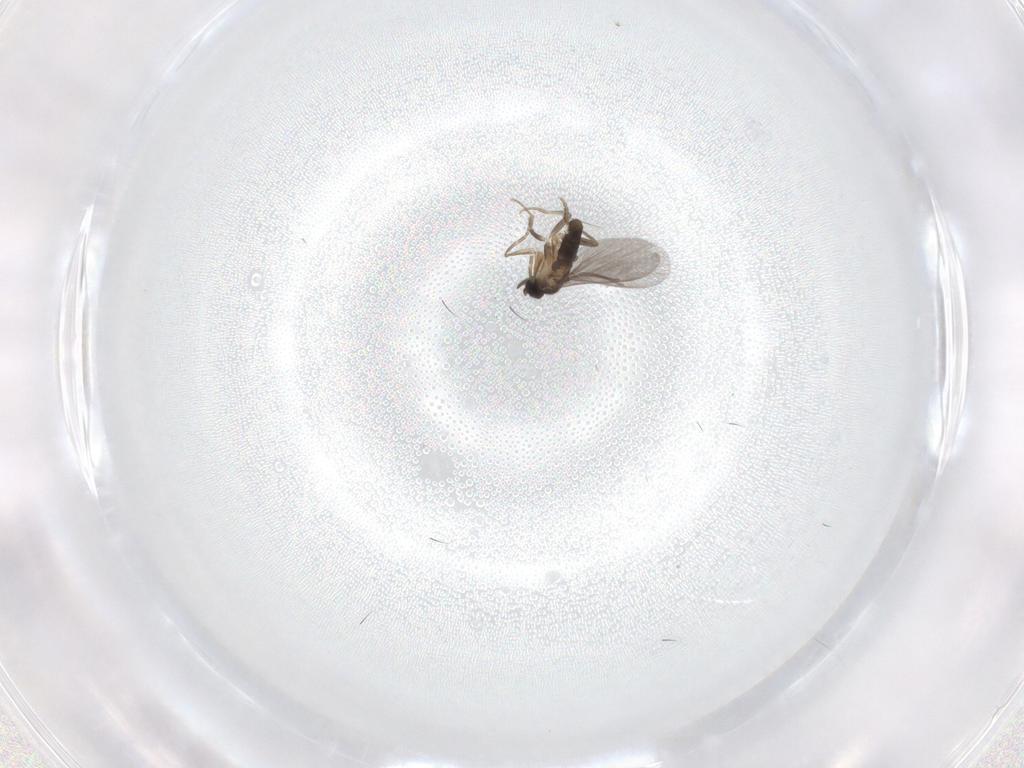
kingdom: Animalia
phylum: Arthropoda
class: Insecta
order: Diptera
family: Cecidomyiidae
